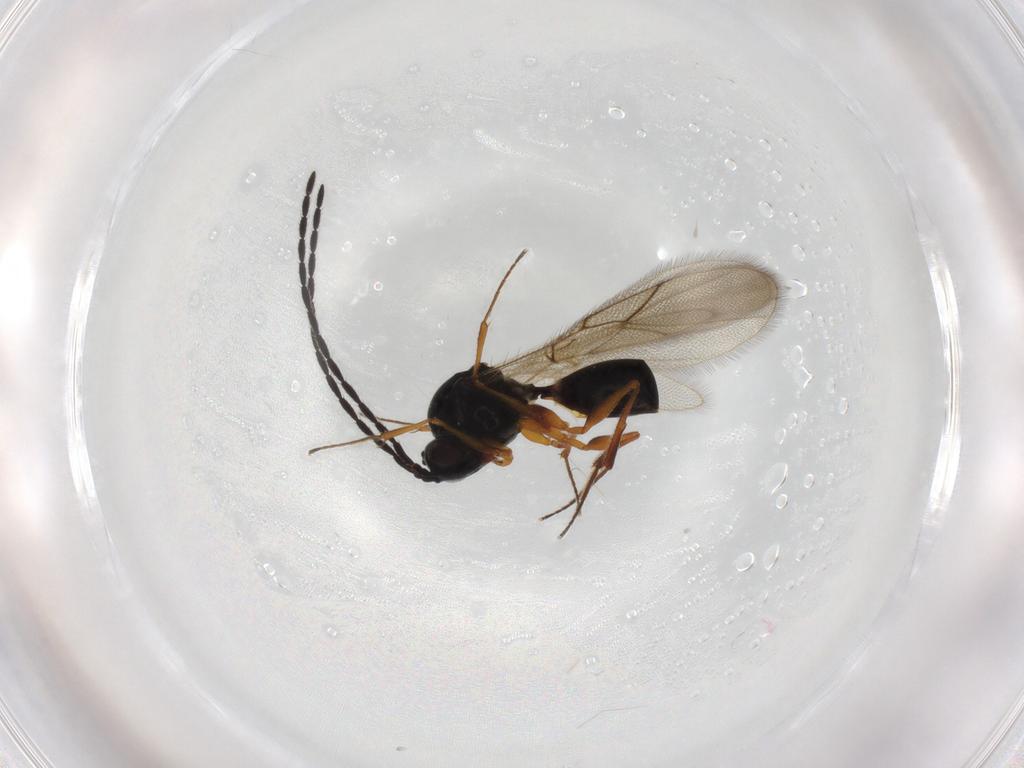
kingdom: Animalia
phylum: Arthropoda
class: Insecta
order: Hymenoptera
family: Figitidae
